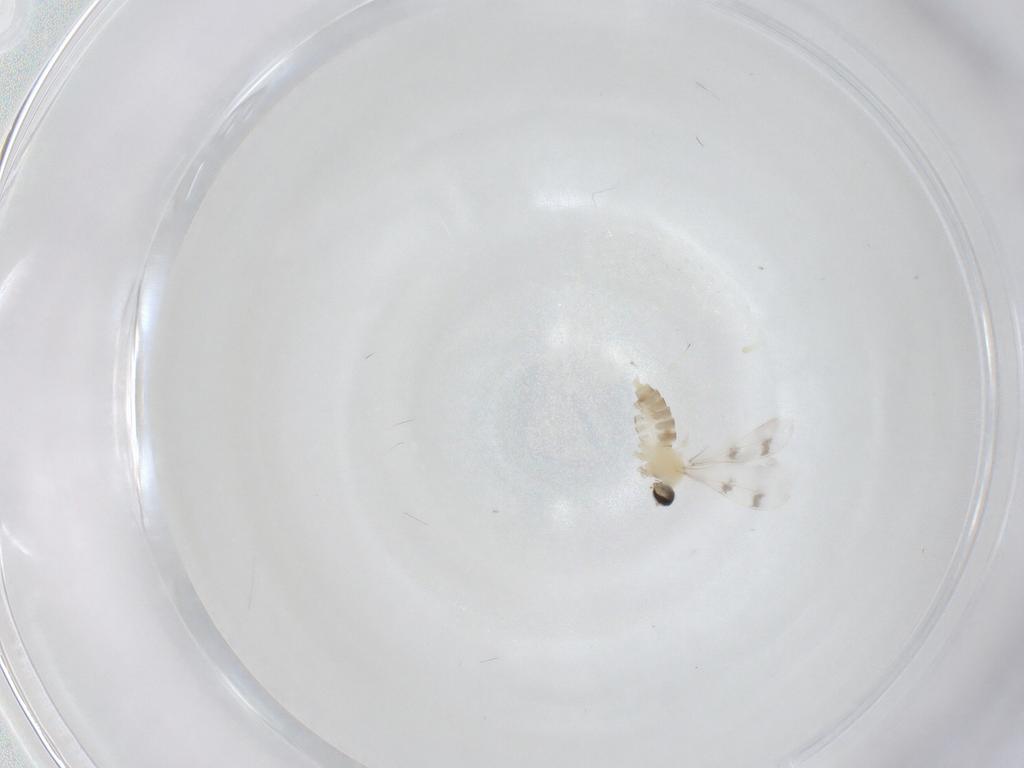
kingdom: Animalia
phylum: Arthropoda
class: Insecta
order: Diptera
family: Cecidomyiidae
